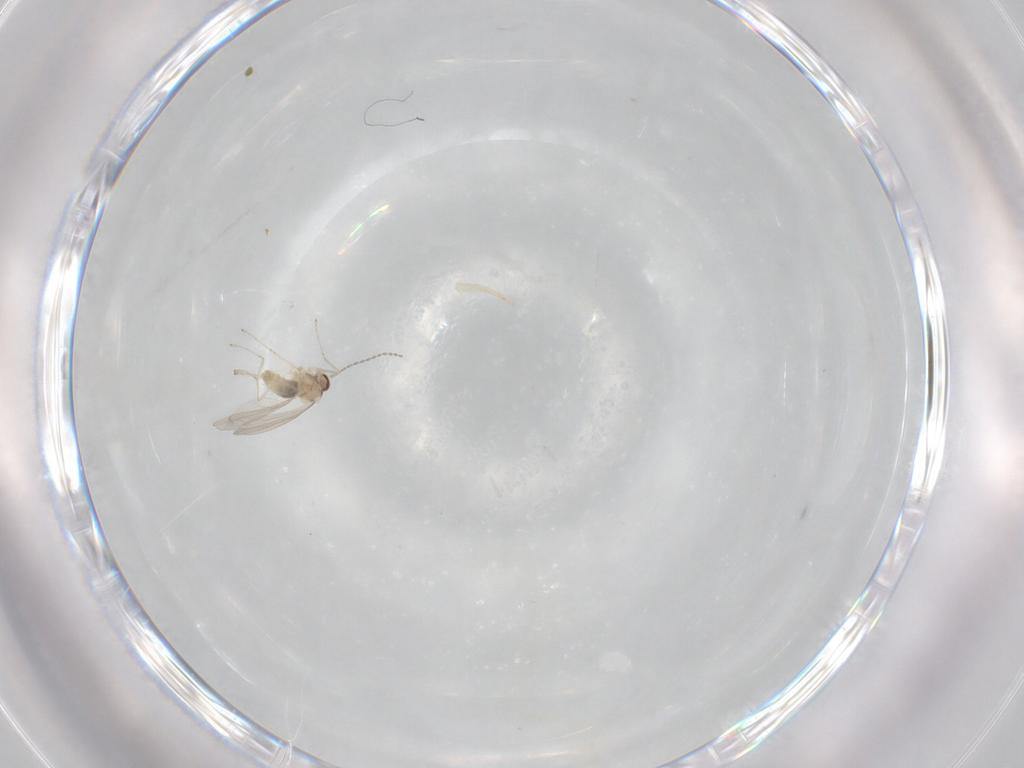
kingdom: Animalia
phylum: Arthropoda
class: Insecta
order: Diptera
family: Phoridae
